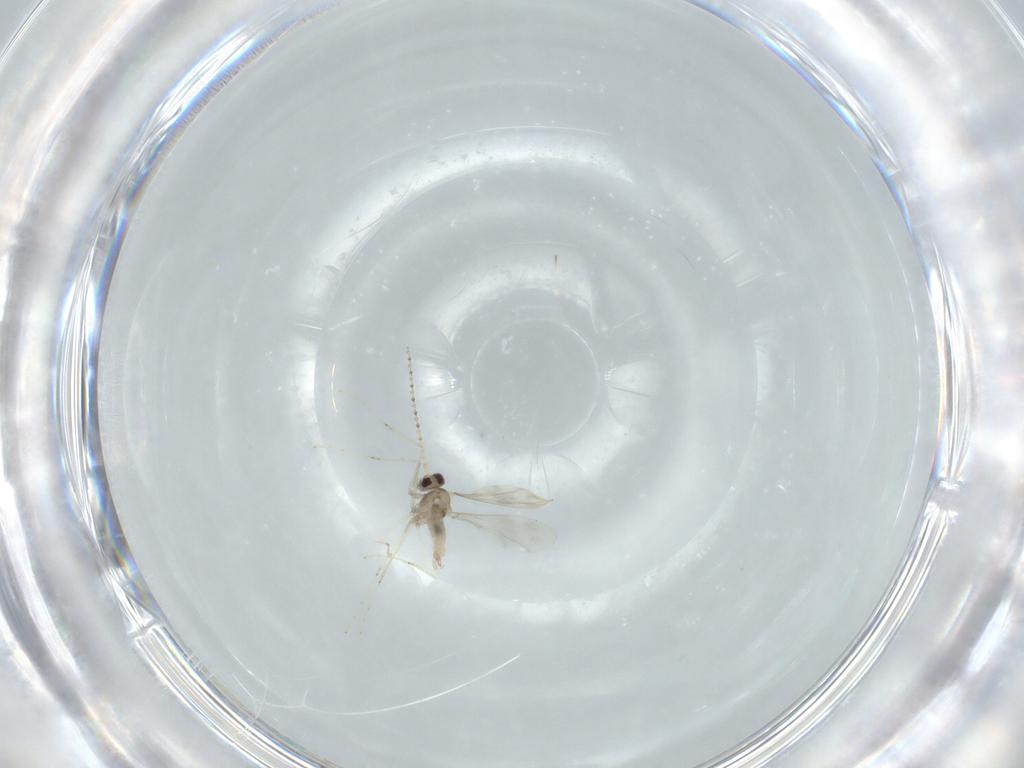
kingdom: Animalia
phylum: Arthropoda
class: Insecta
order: Diptera
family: Cecidomyiidae
